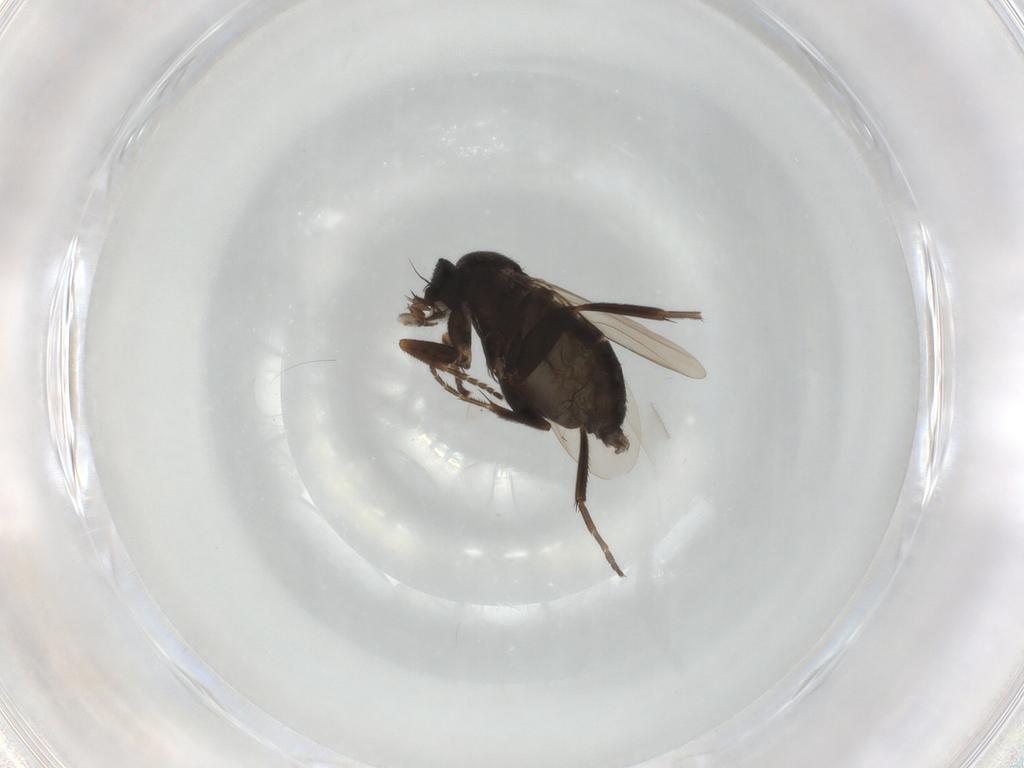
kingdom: Animalia
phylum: Arthropoda
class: Insecta
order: Diptera
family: Phoridae
